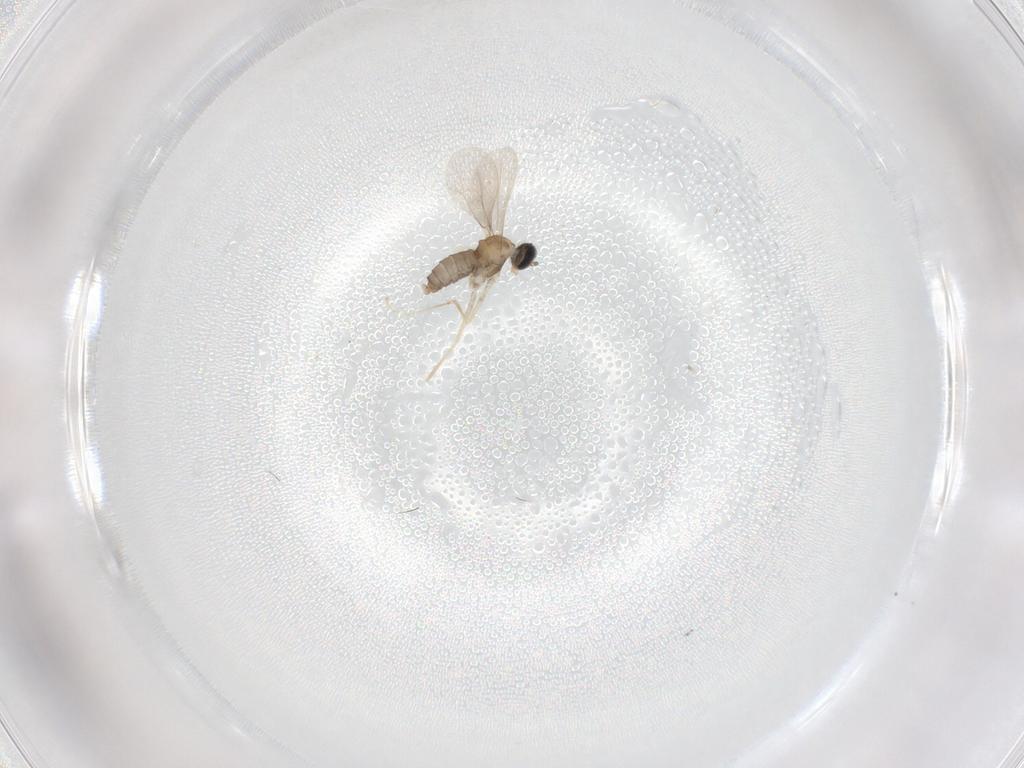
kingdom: Animalia
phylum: Arthropoda
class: Insecta
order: Diptera
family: Cecidomyiidae
